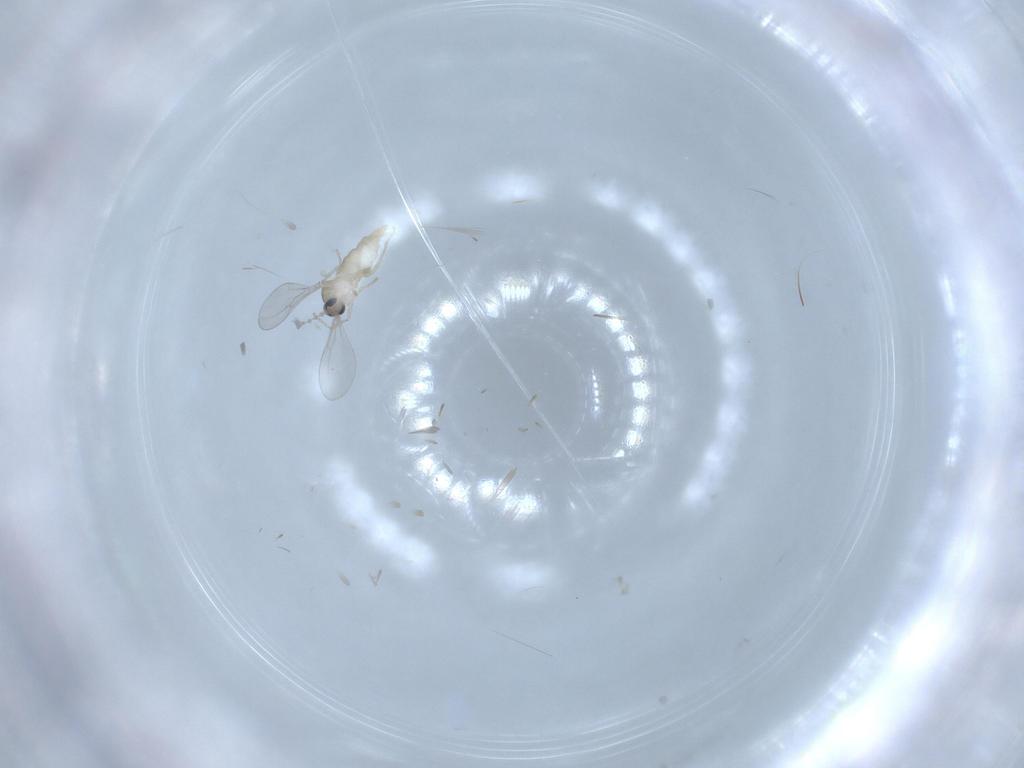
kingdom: Animalia
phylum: Arthropoda
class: Insecta
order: Diptera
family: Cecidomyiidae
